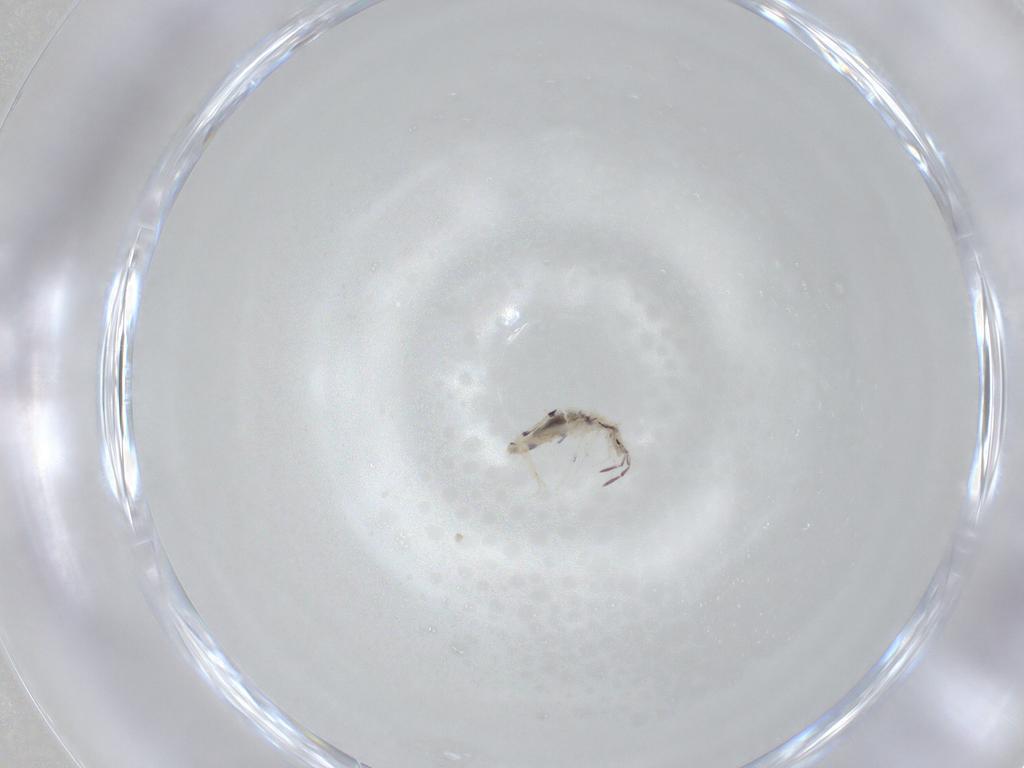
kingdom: Animalia
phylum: Arthropoda
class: Collembola
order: Entomobryomorpha
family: Entomobryidae
